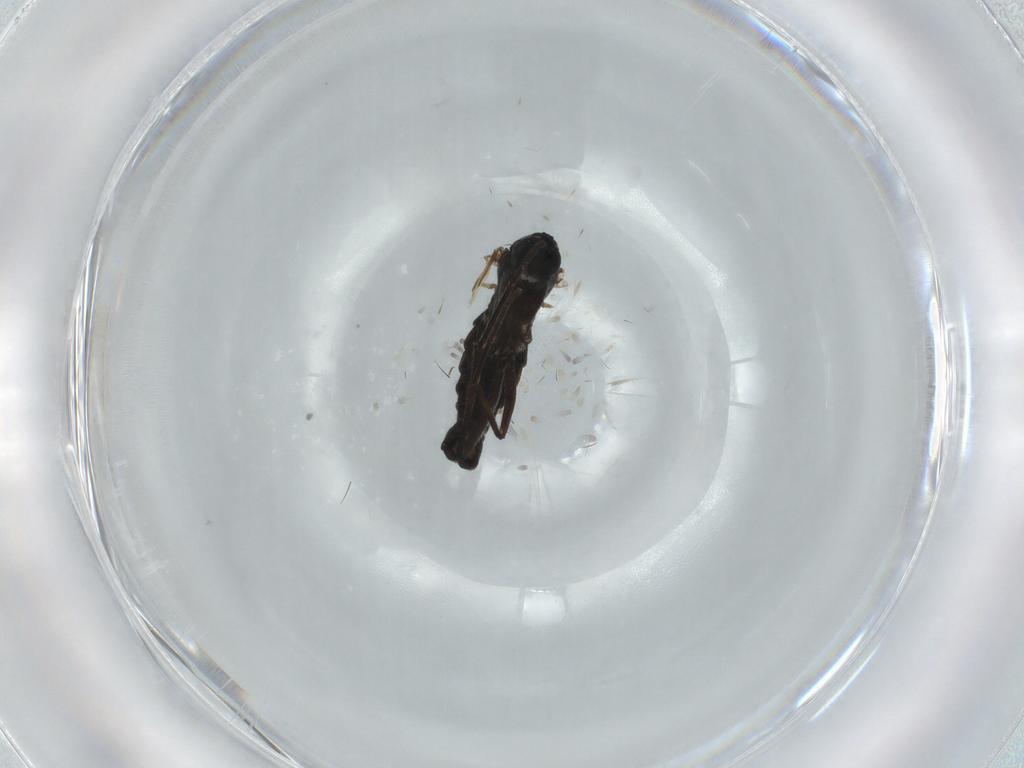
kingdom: Animalia
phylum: Arthropoda
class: Insecta
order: Diptera
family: Sciaridae
